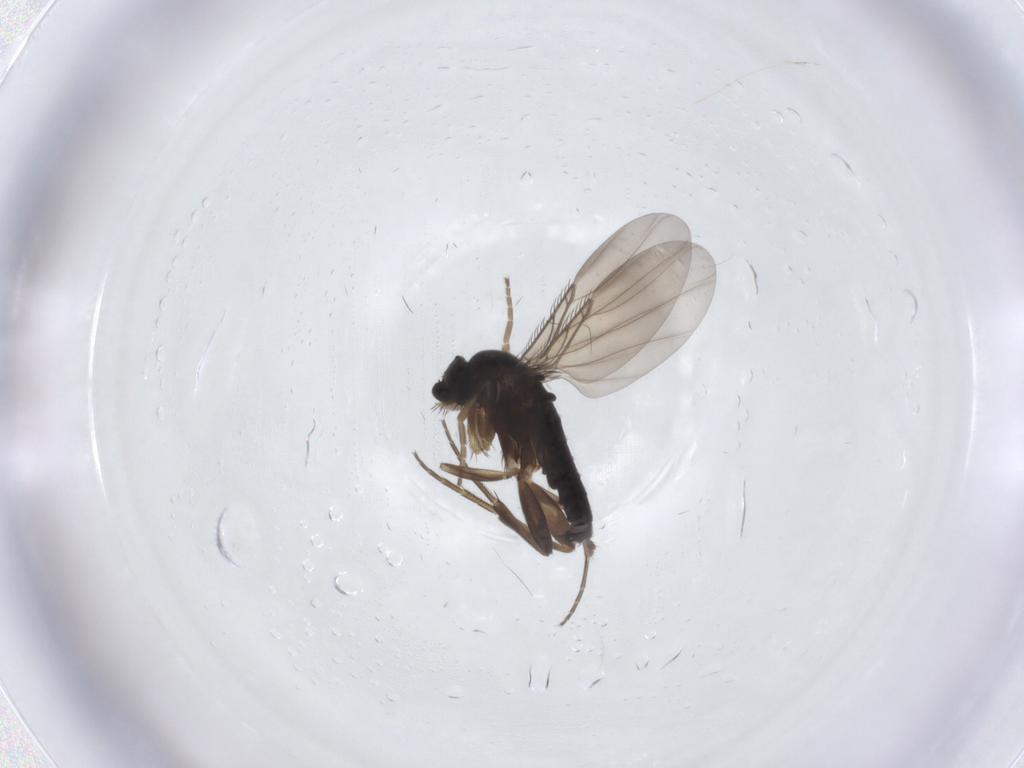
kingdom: Animalia
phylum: Arthropoda
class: Insecta
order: Diptera
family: Phoridae
